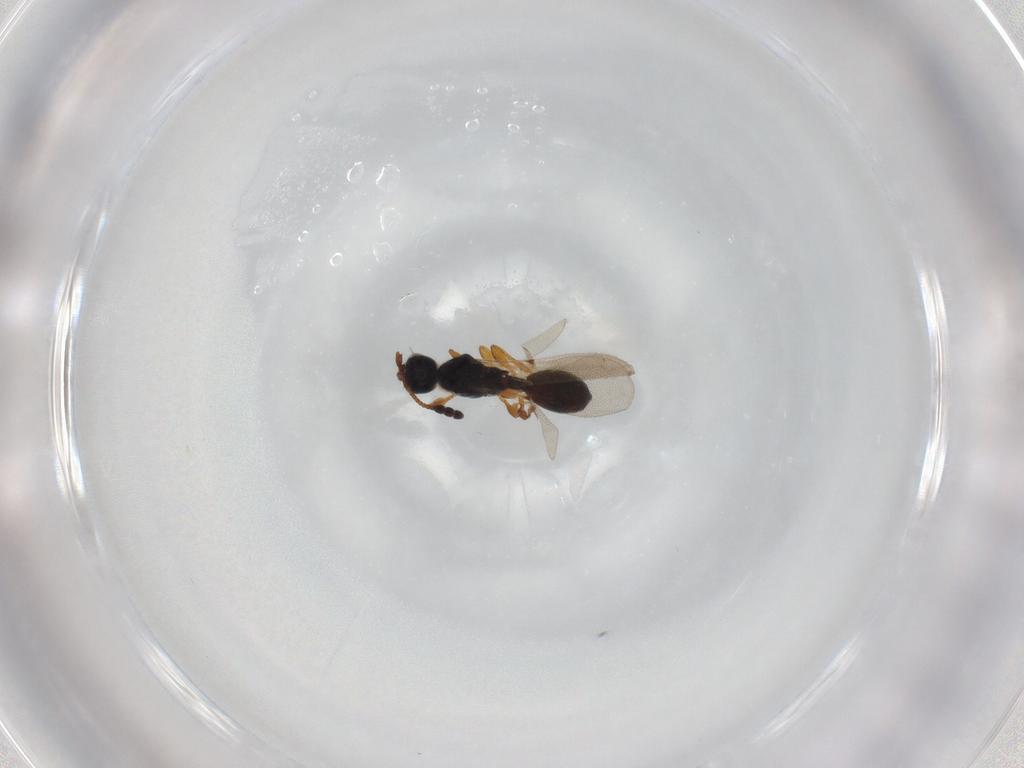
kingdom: Animalia
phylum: Arthropoda
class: Insecta
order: Hymenoptera
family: Diapriidae
